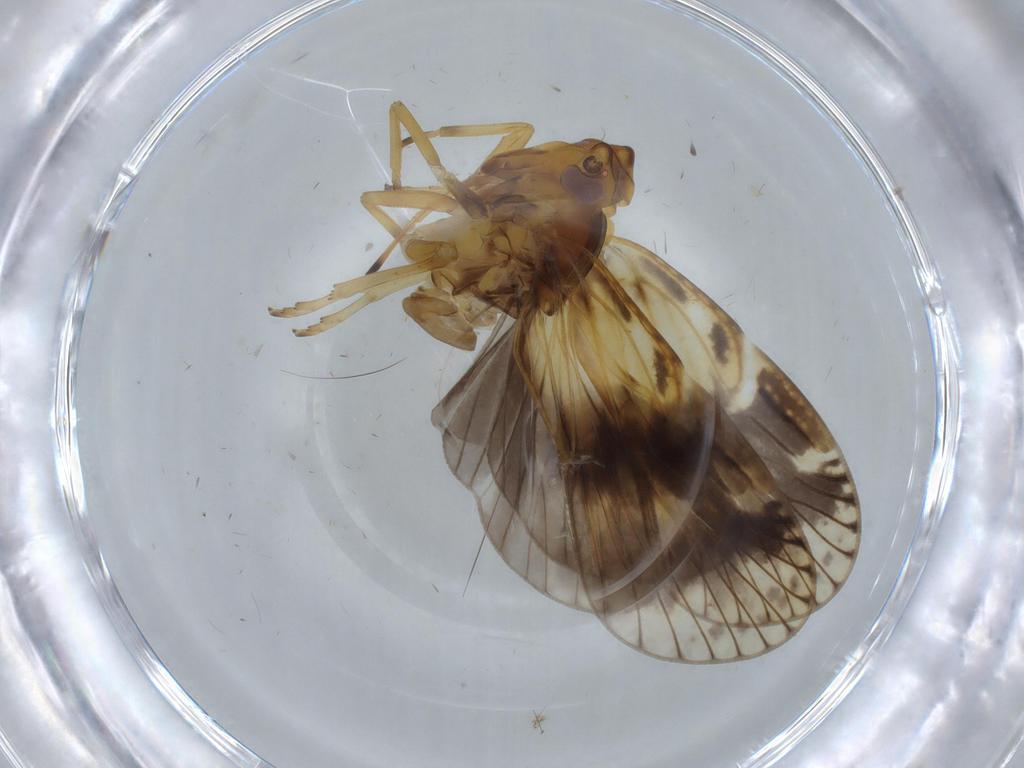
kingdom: Animalia
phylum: Arthropoda
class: Insecta
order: Hemiptera
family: Cixiidae
